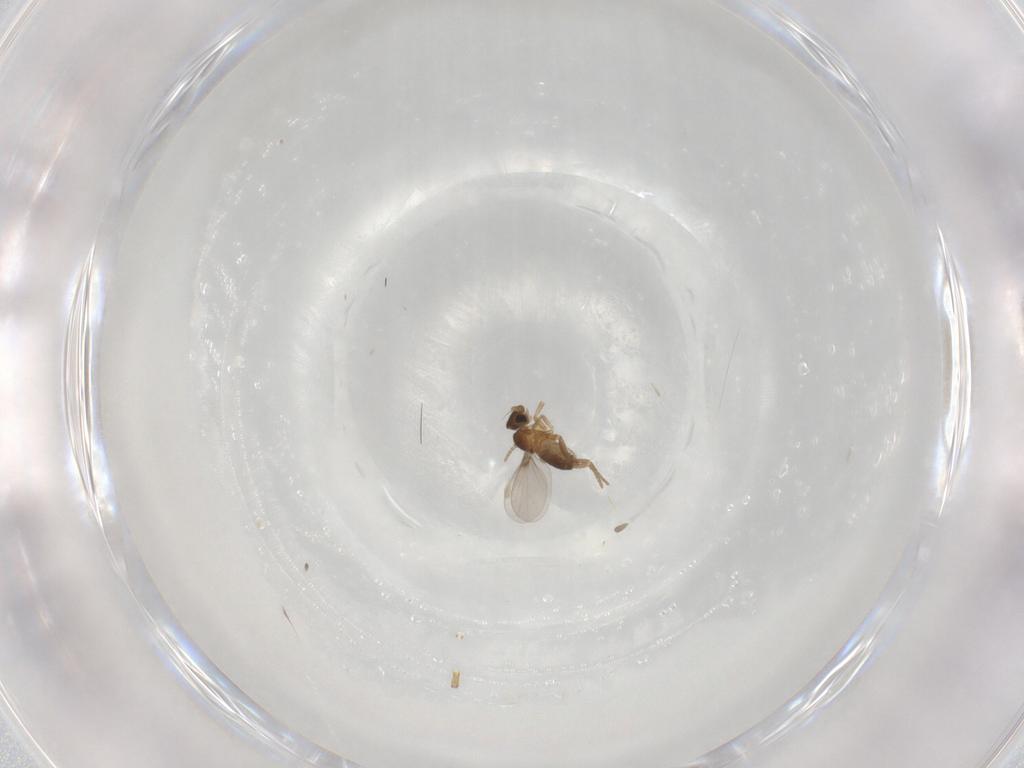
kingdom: Animalia
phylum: Arthropoda
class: Insecta
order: Diptera
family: Phoridae
